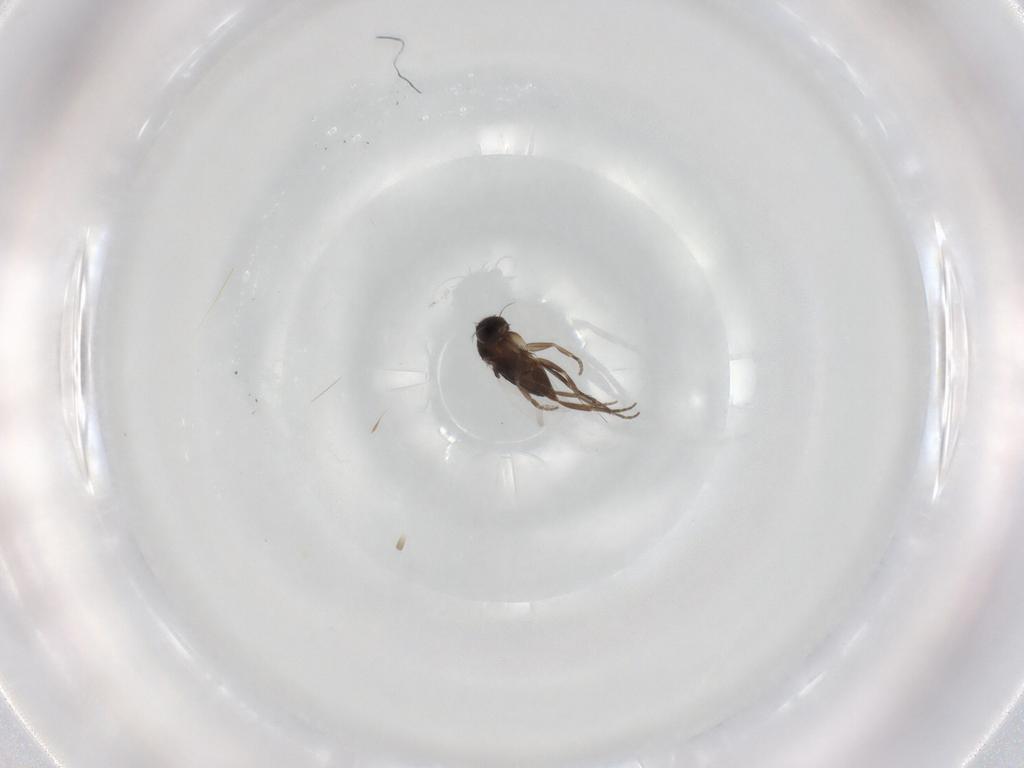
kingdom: Animalia
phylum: Arthropoda
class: Insecta
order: Diptera
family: Phoridae
